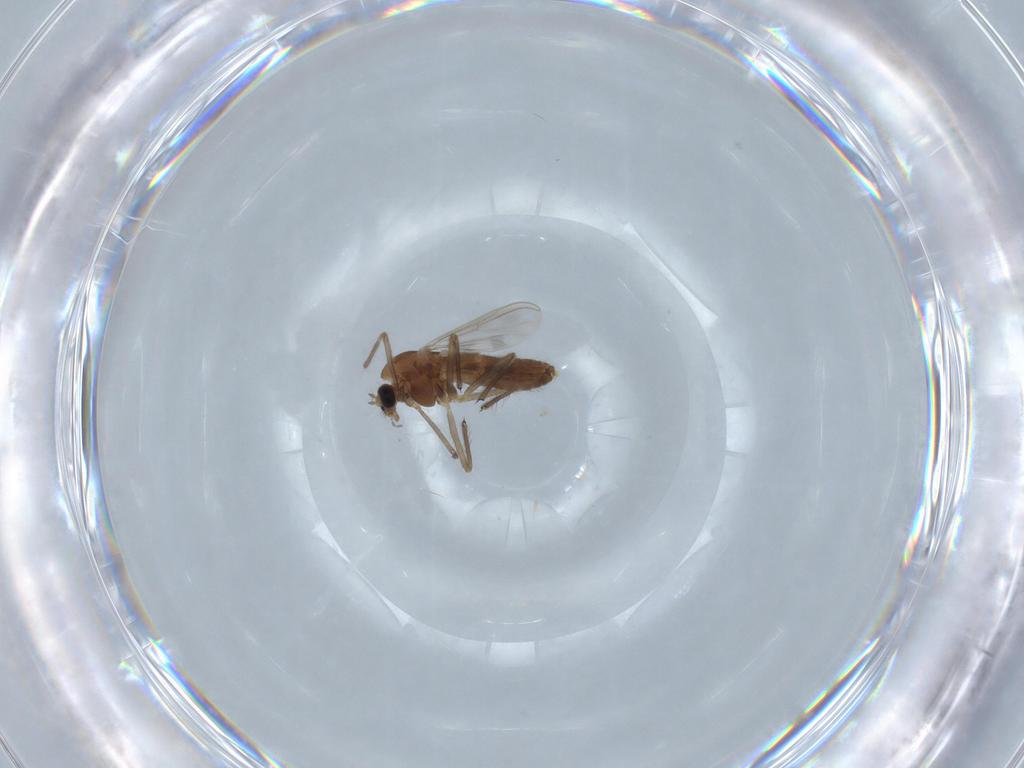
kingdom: Animalia
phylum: Arthropoda
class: Insecta
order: Diptera
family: Chironomidae
